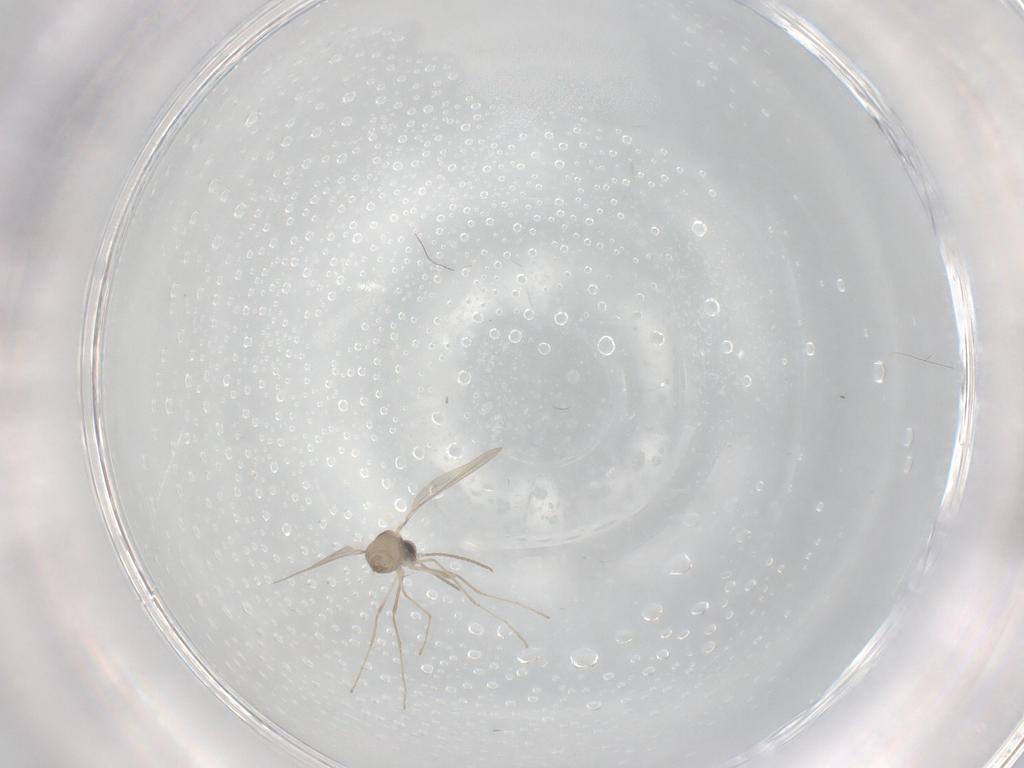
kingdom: Animalia
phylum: Arthropoda
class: Insecta
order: Diptera
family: Cecidomyiidae
